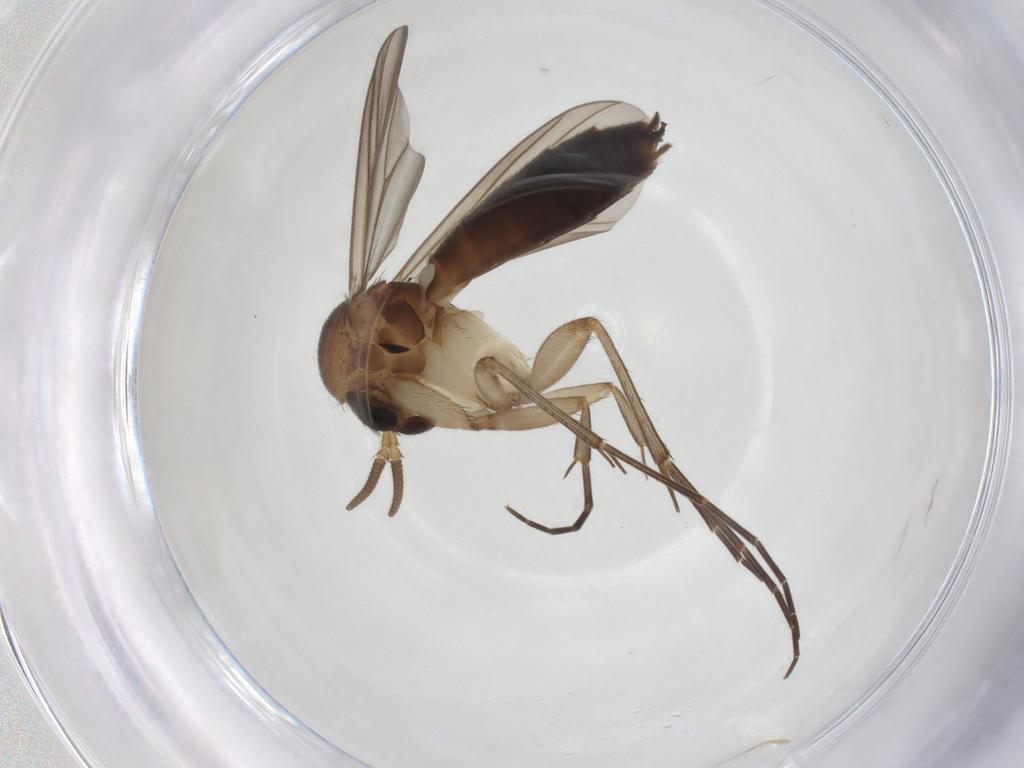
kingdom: Animalia
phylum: Arthropoda
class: Insecta
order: Diptera
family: Mycetophilidae
